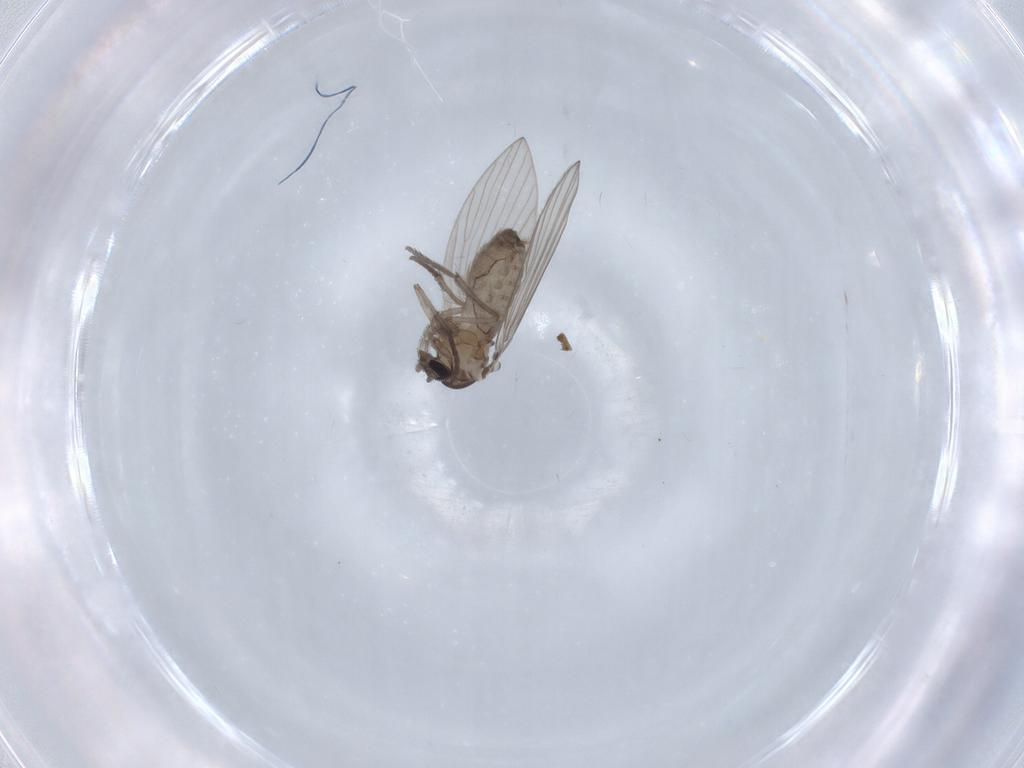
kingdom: Animalia
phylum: Arthropoda
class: Insecta
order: Diptera
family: Psychodidae
